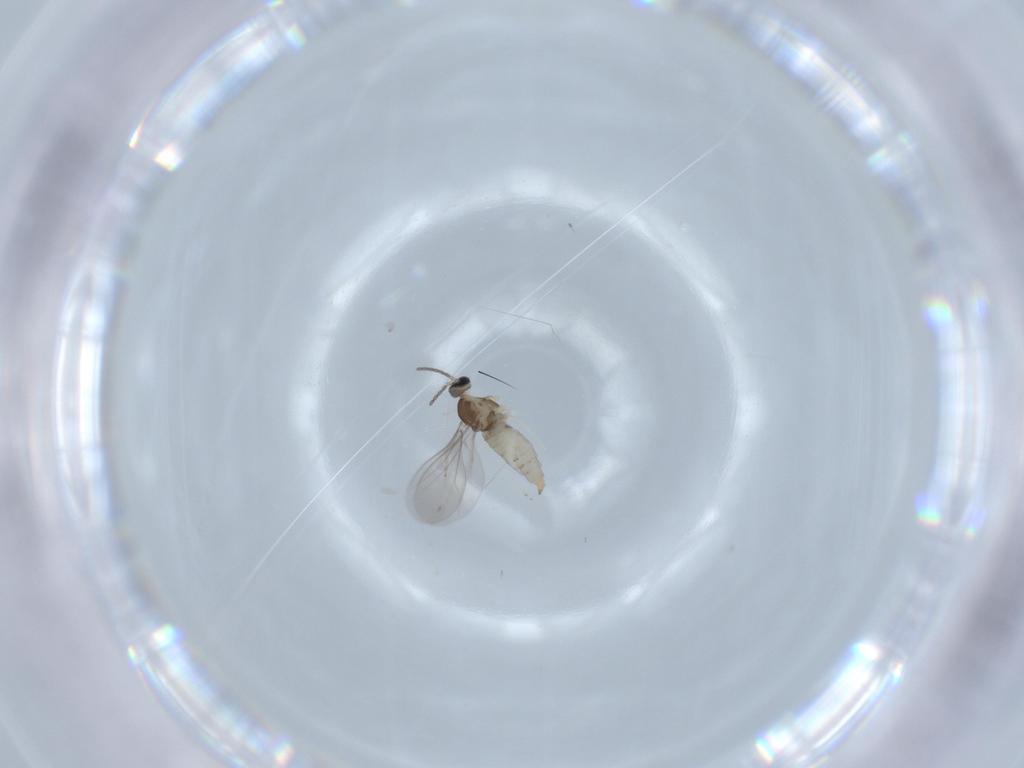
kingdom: Animalia
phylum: Arthropoda
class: Insecta
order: Diptera
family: Cecidomyiidae
